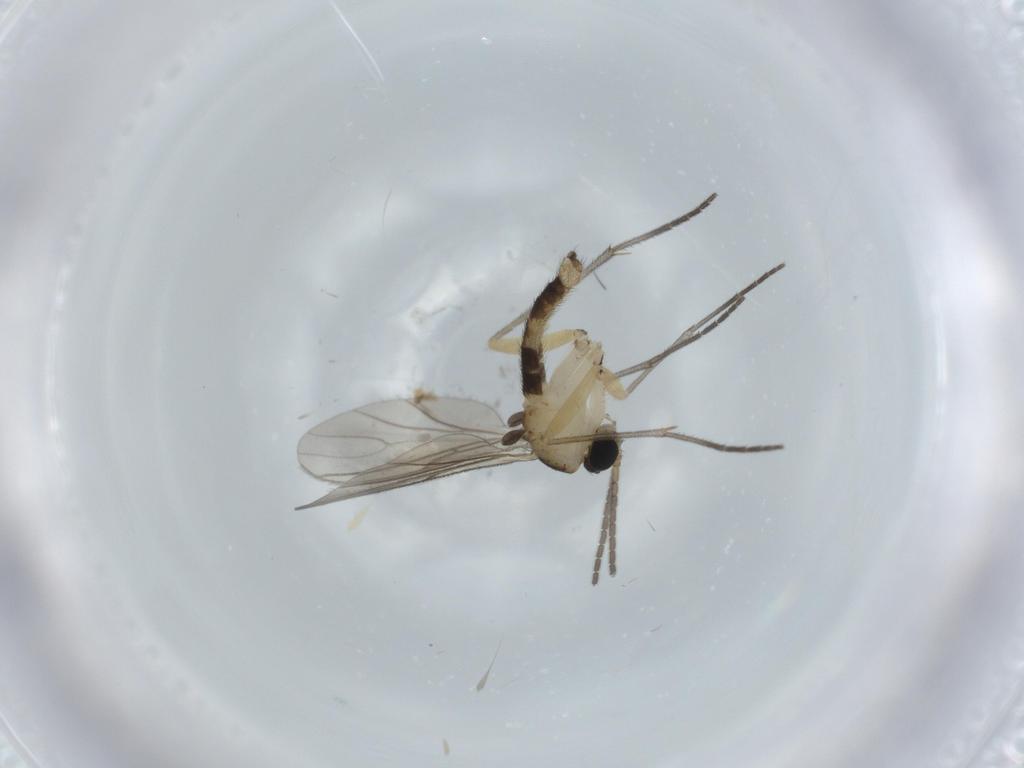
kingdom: Animalia
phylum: Arthropoda
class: Insecta
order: Diptera
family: Sciaridae
